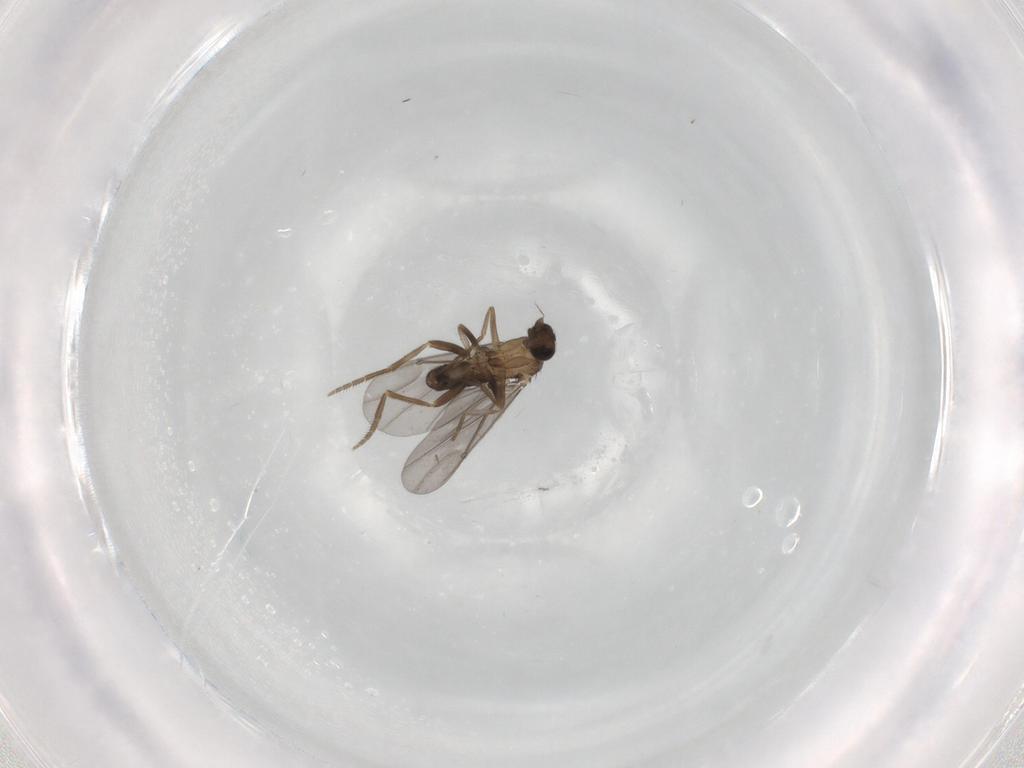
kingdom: Animalia
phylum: Arthropoda
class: Insecta
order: Diptera
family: Phoridae
